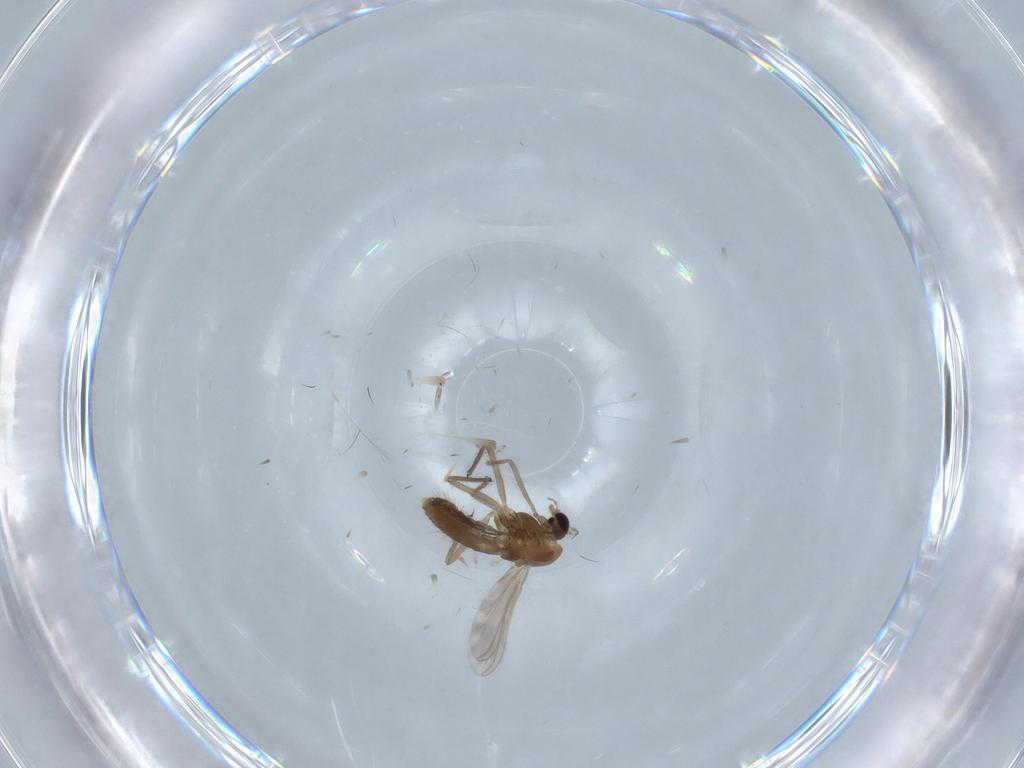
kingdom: Animalia
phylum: Arthropoda
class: Insecta
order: Diptera
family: Chironomidae
